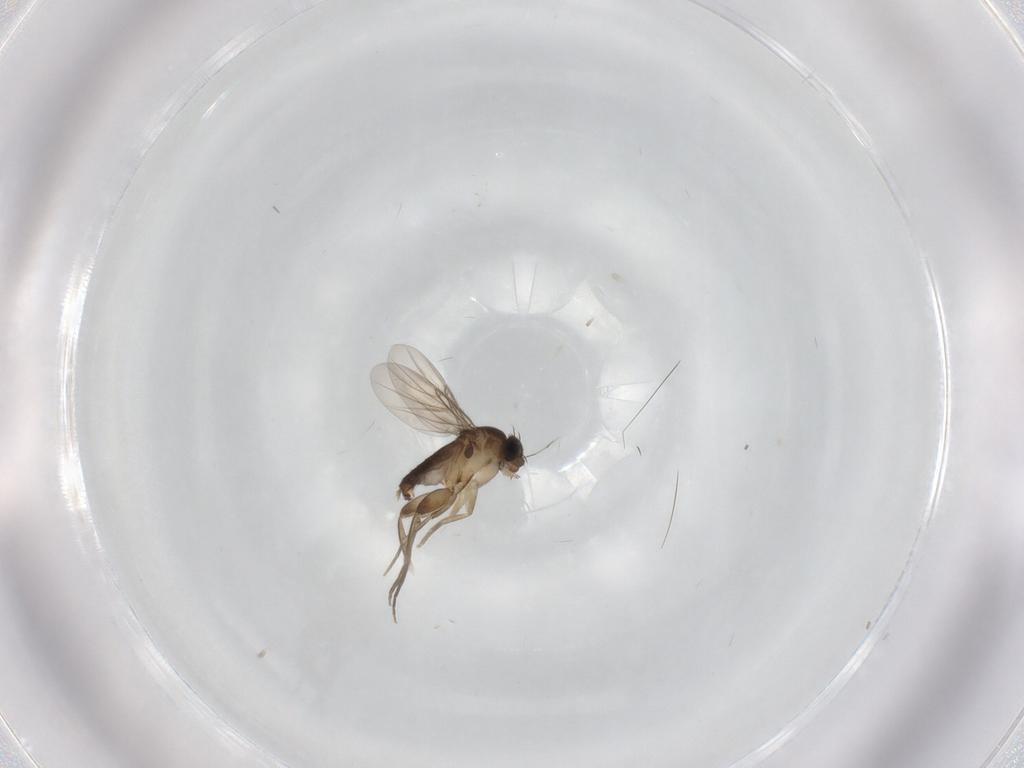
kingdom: Animalia
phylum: Arthropoda
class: Insecta
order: Diptera
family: Phoridae
